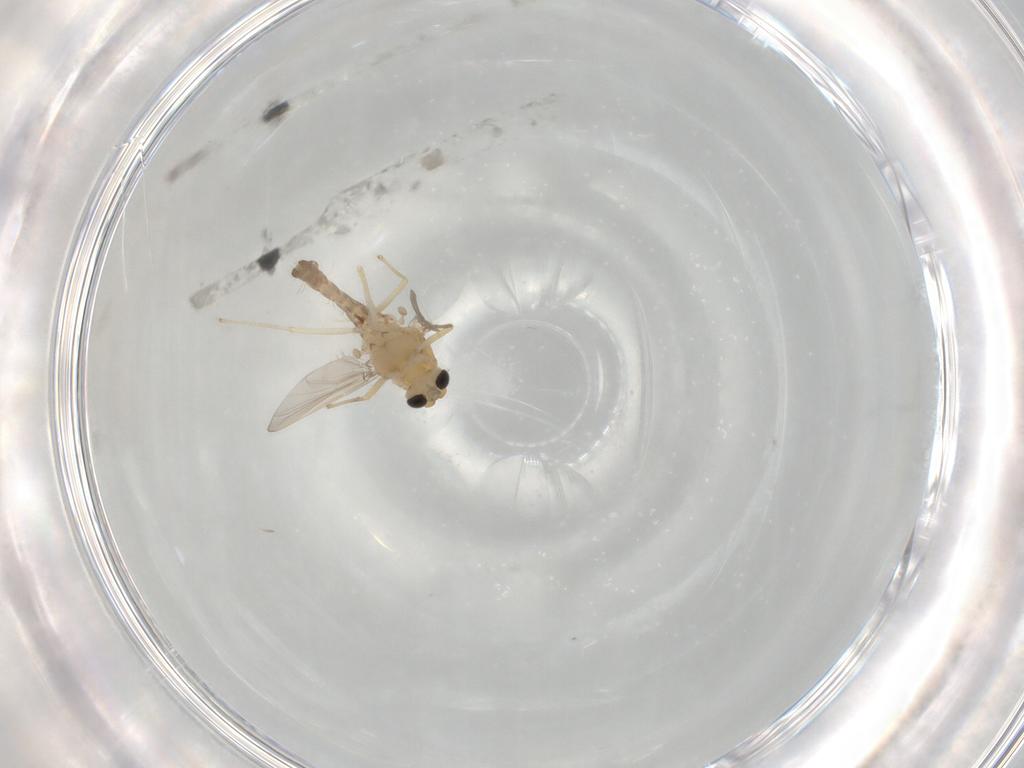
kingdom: Animalia
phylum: Arthropoda
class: Insecta
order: Diptera
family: Chironomidae
